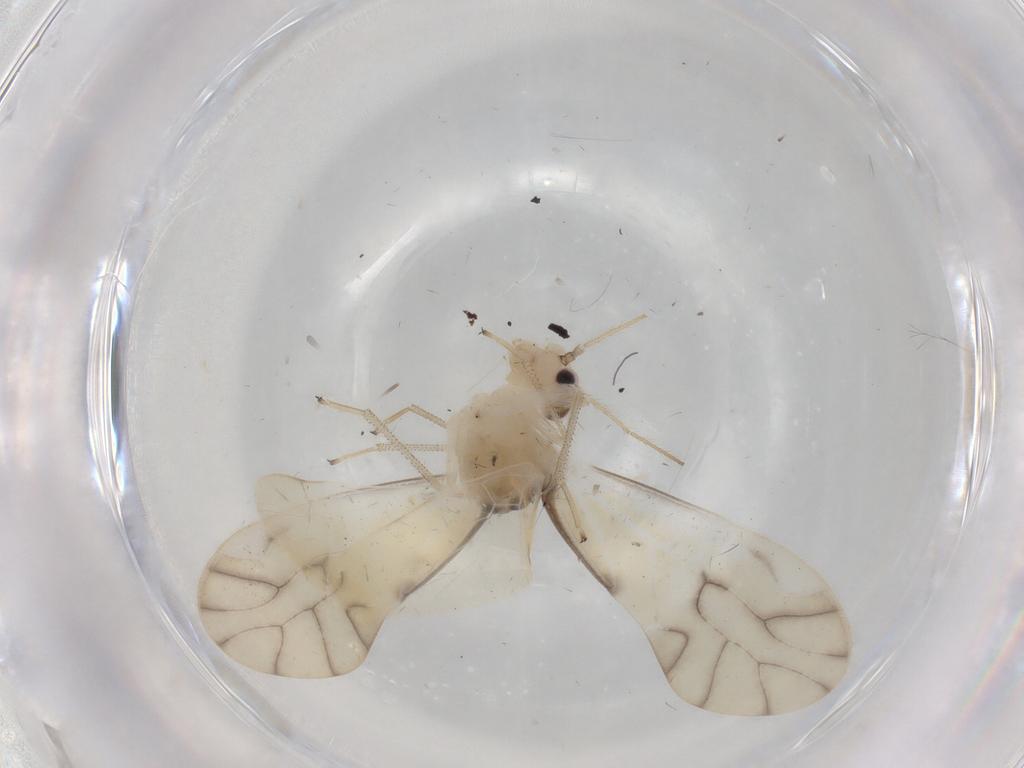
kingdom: Animalia
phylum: Arthropoda
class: Insecta
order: Psocodea
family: Caeciliusidae
